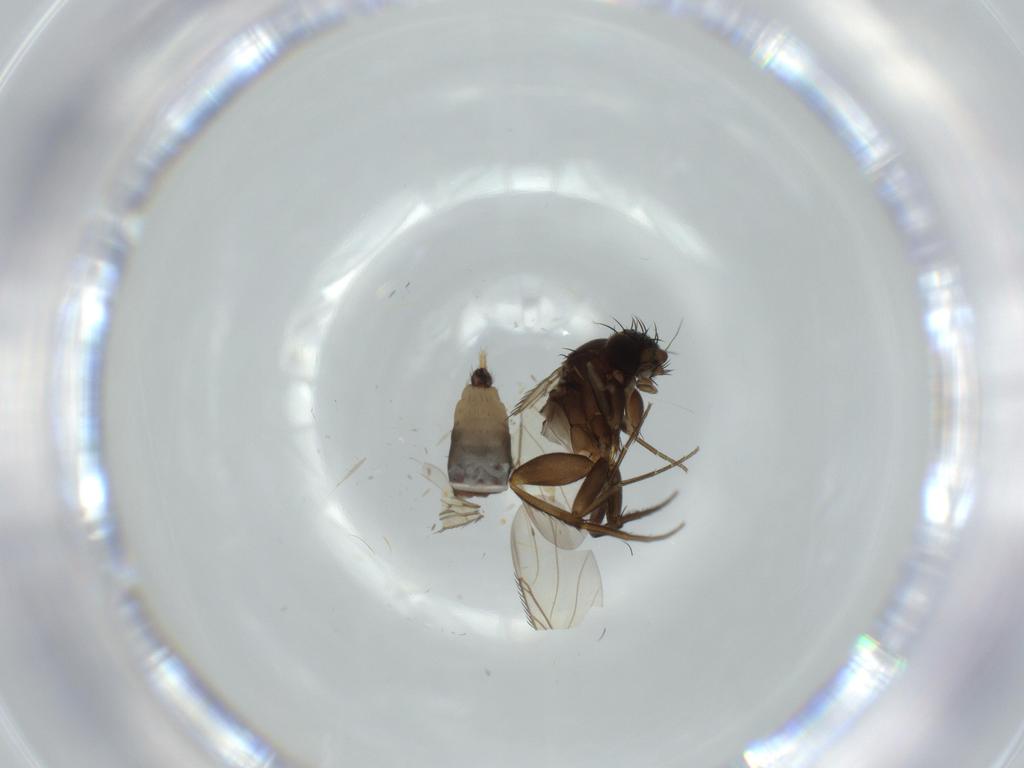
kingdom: Animalia
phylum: Arthropoda
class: Insecta
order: Diptera
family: Phoridae
